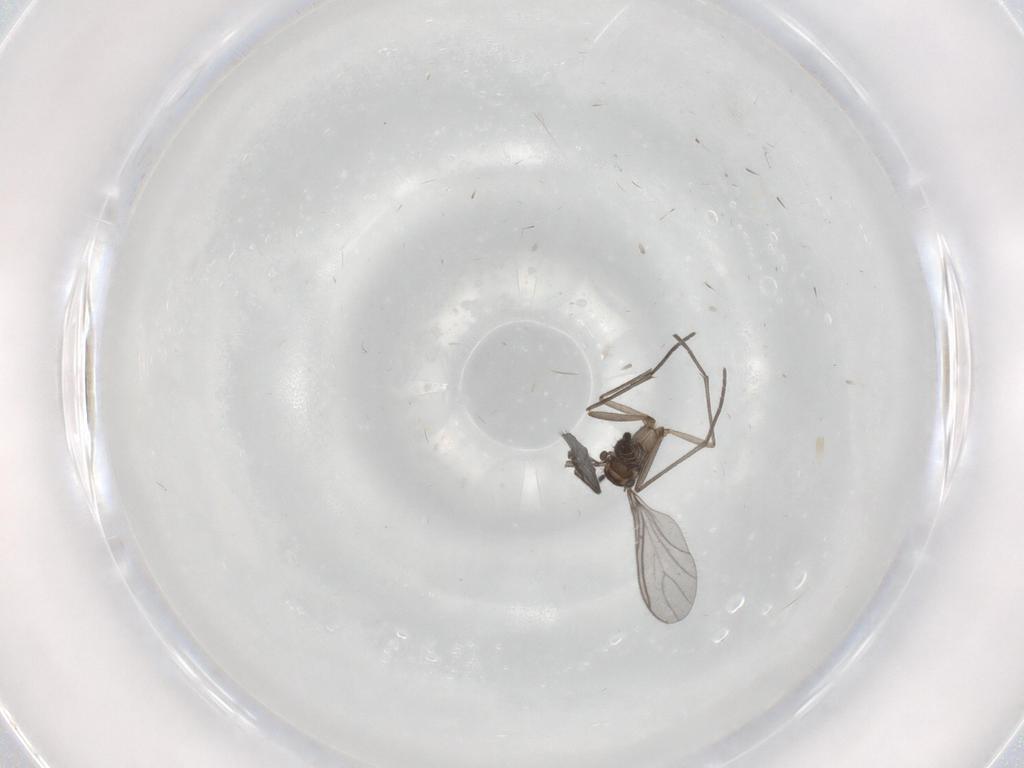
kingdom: Animalia
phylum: Arthropoda
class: Insecta
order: Diptera
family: Sciaridae
